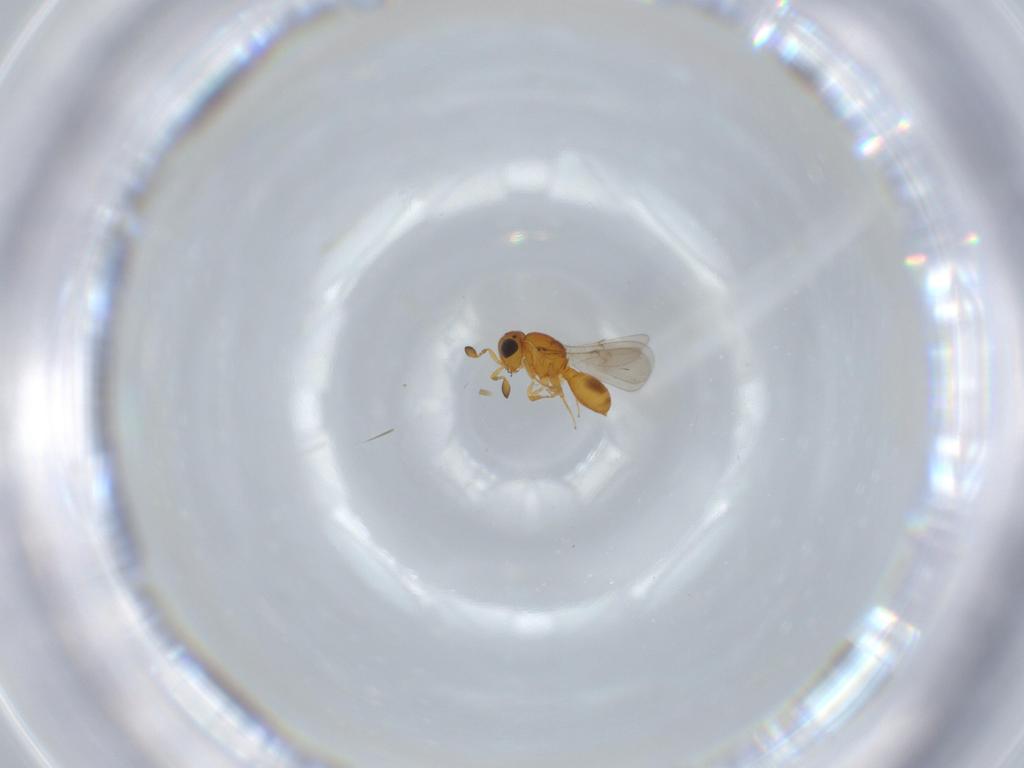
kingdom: Animalia
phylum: Arthropoda
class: Insecta
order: Hymenoptera
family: Scelionidae
